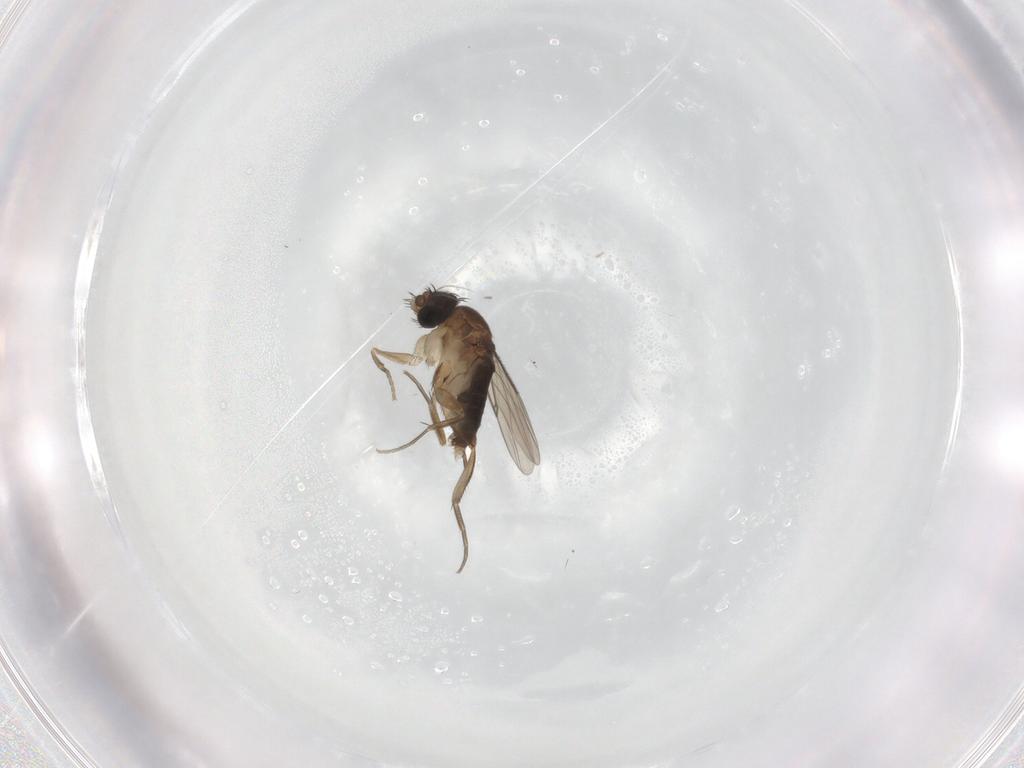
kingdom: Animalia
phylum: Arthropoda
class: Insecta
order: Diptera
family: Phoridae
